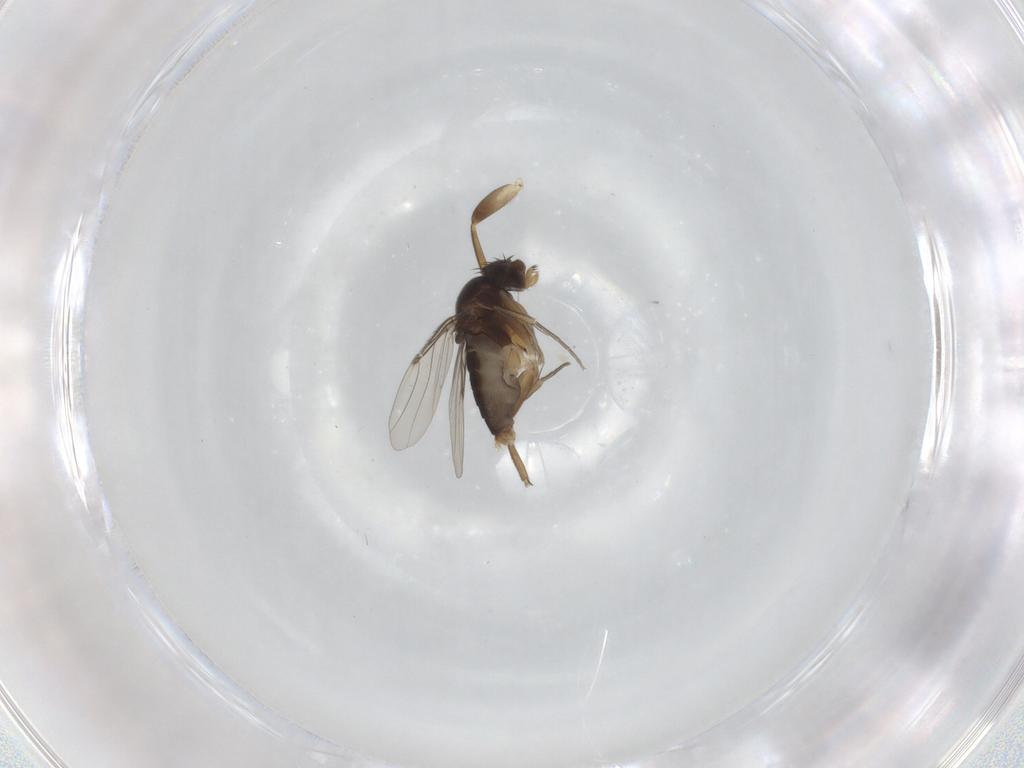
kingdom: Animalia
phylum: Arthropoda
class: Insecta
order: Diptera
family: Phoridae
